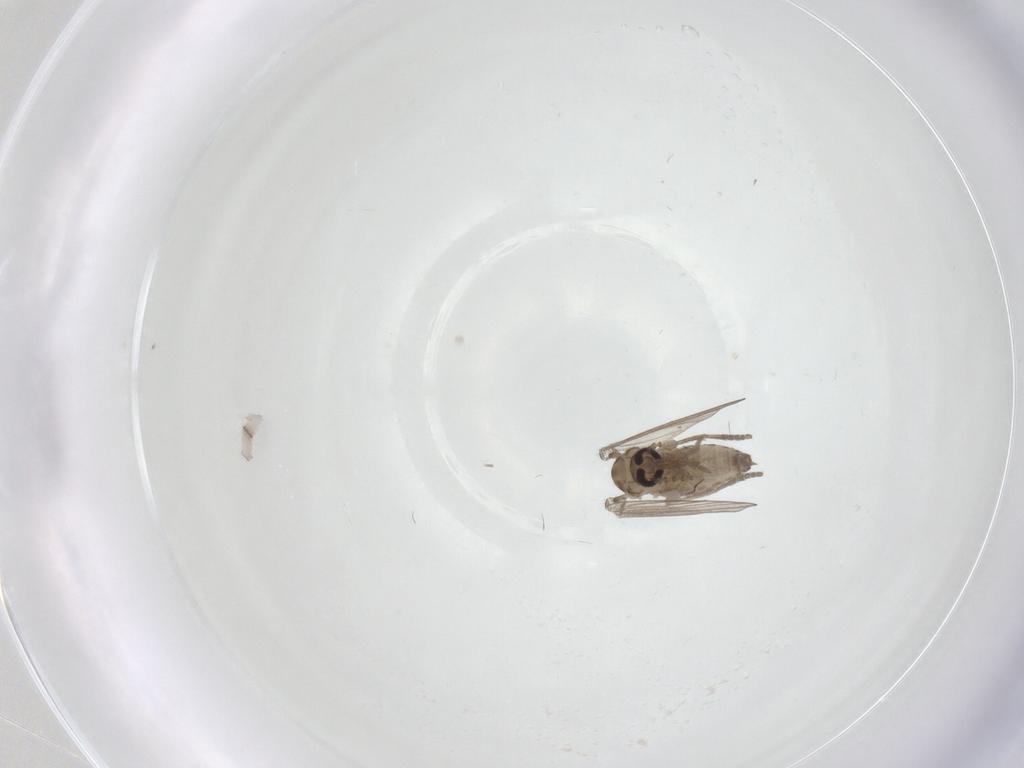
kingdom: Animalia
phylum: Arthropoda
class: Insecta
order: Diptera
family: Psychodidae
